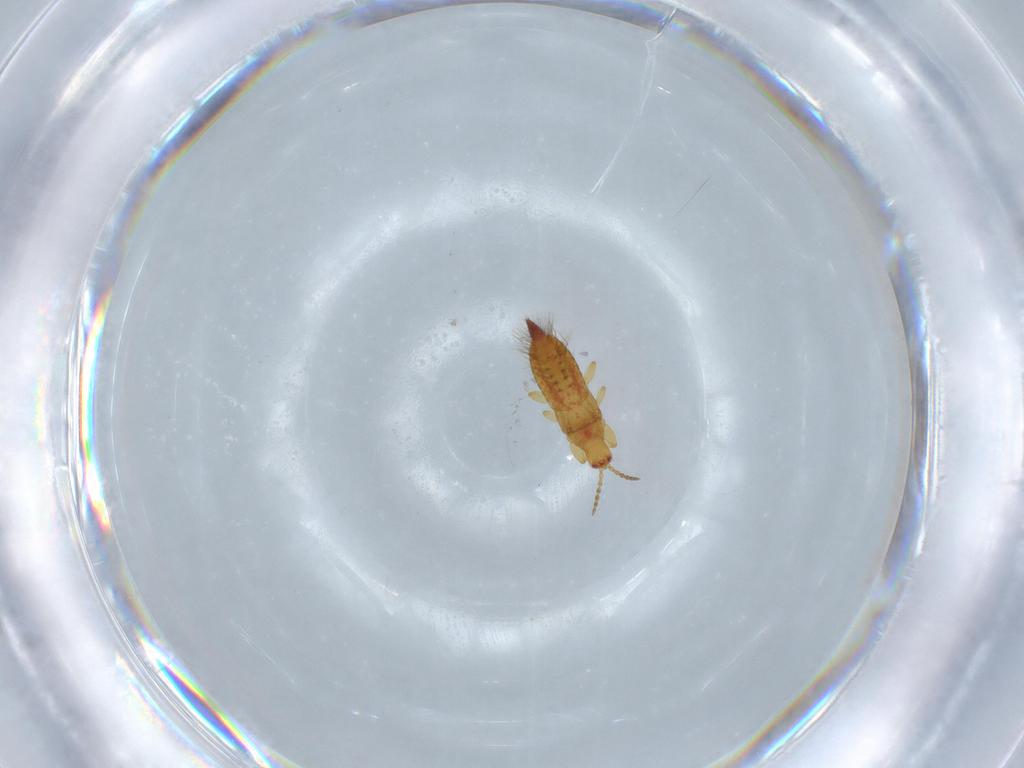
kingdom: Animalia
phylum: Arthropoda
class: Insecta
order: Thysanoptera
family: Phlaeothripidae
